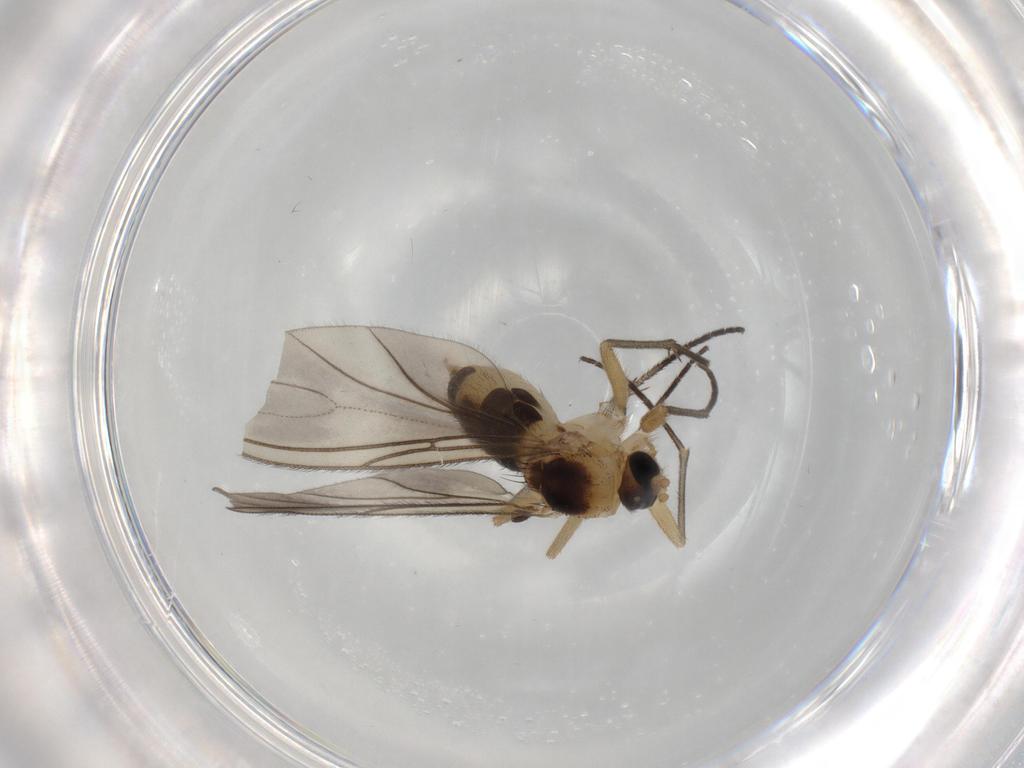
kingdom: Animalia
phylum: Arthropoda
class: Insecta
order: Diptera
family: Sciaridae
